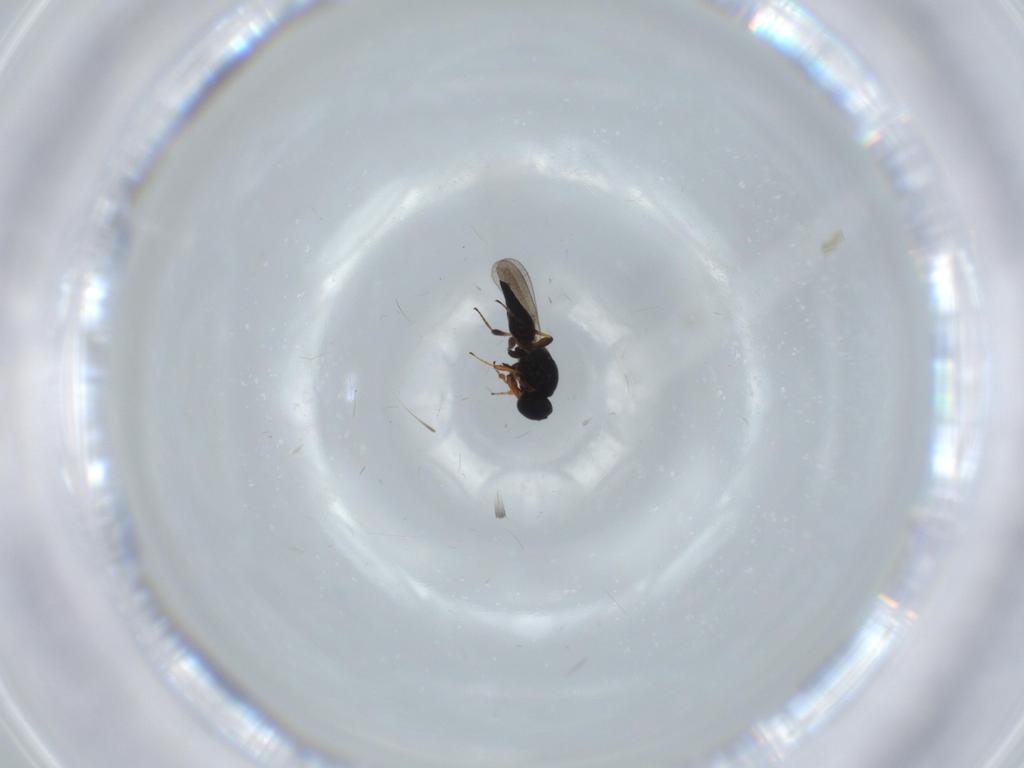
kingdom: Animalia
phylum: Arthropoda
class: Insecta
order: Hymenoptera
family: Platygastridae
